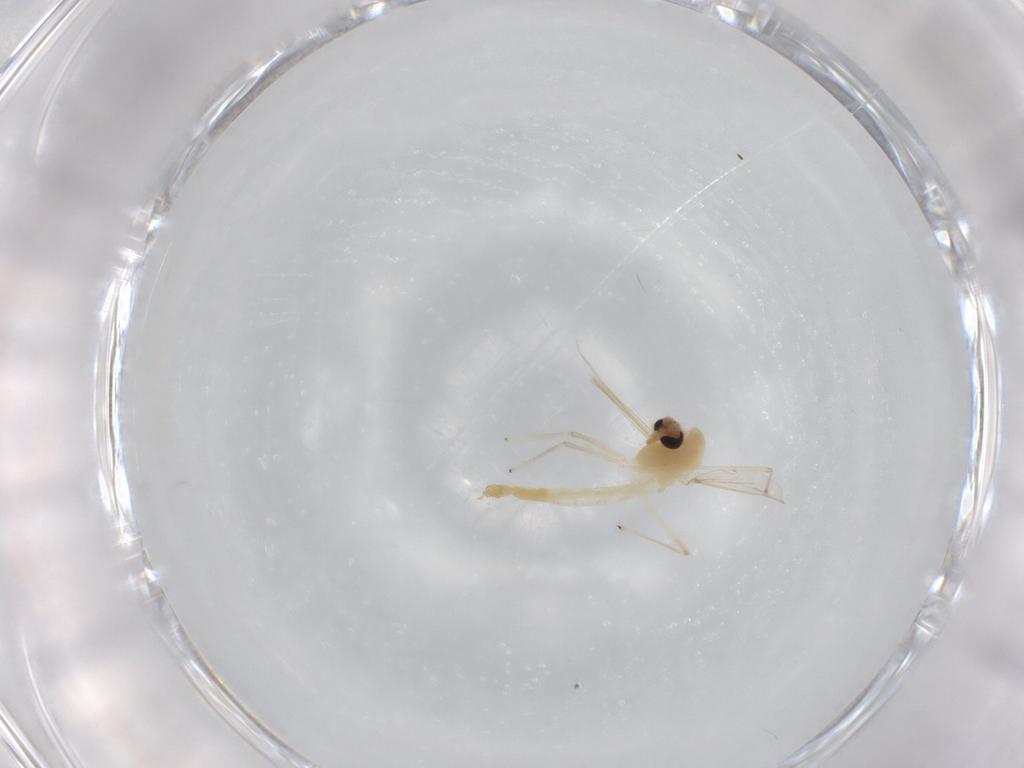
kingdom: Animalia
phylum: Arthropoda
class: Insecta
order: Diptera
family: Chironomidae
